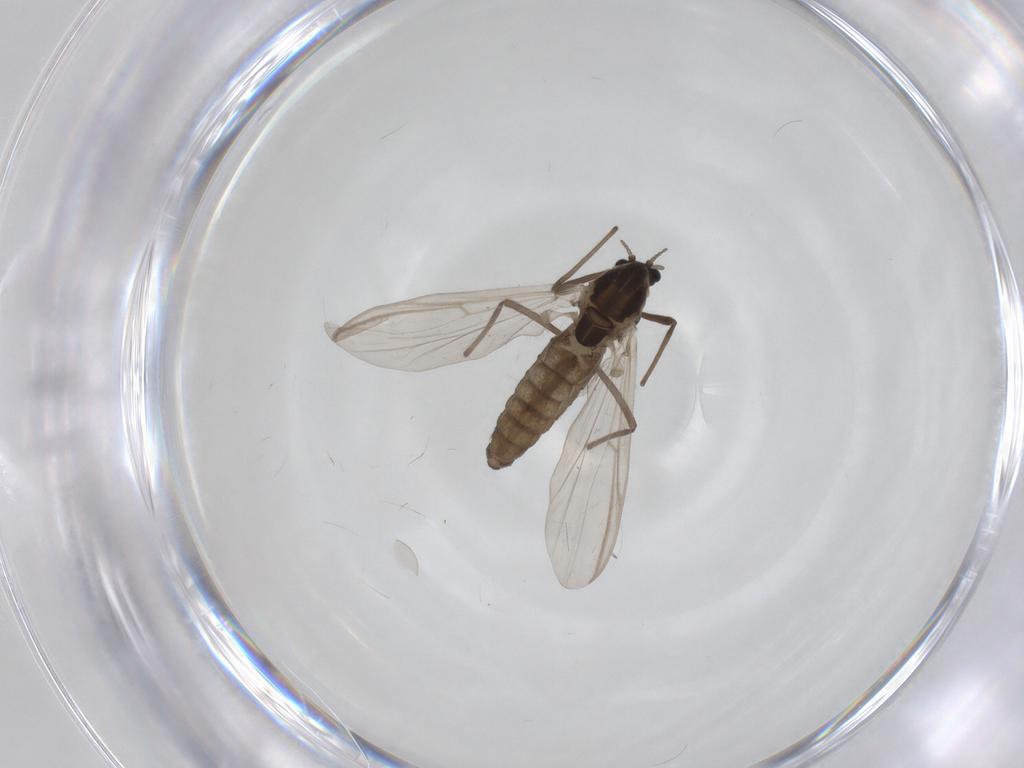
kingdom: Animalia
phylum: Arthropoda
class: Insecta
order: Diptera
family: Chironomidae
